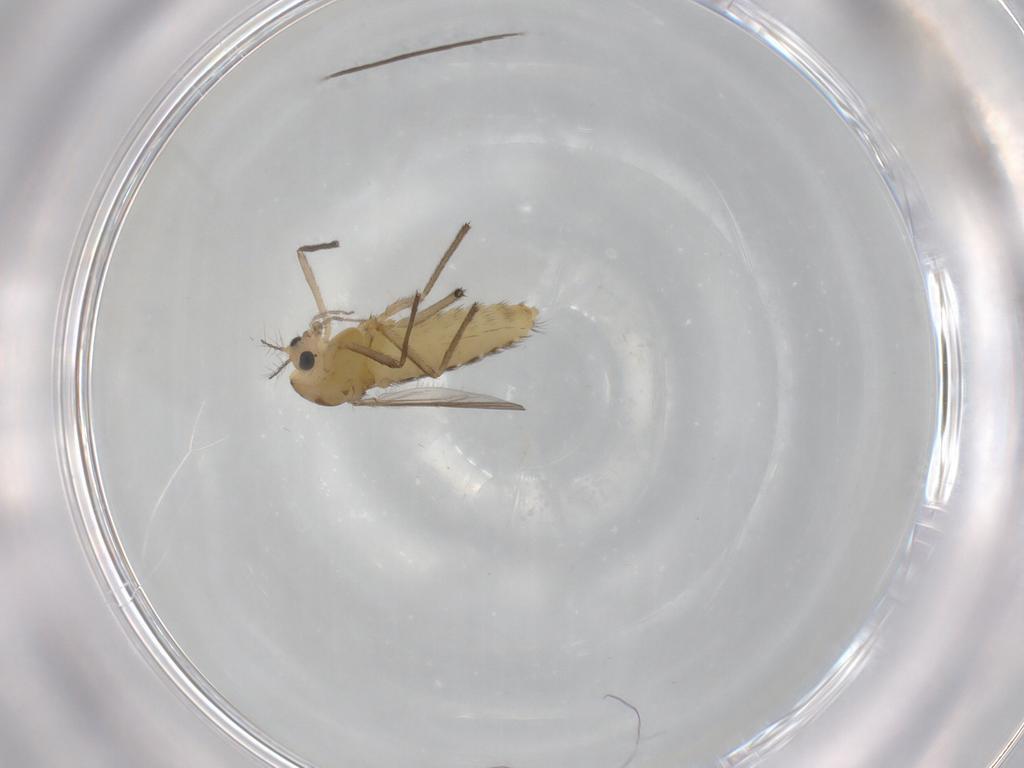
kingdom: Animalia
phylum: Arthropoda
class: Insecta
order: Diptera
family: Chironomidae
